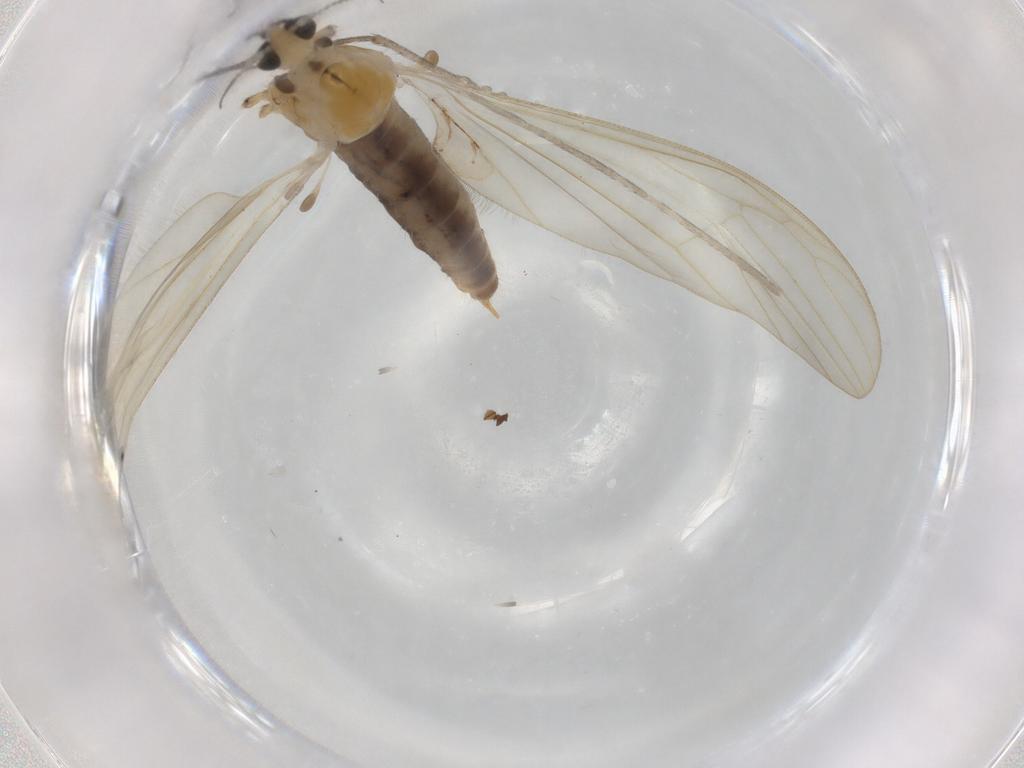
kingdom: Animalia
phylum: Arthropoda
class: Insecta
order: Diptera
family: Limoniidae
